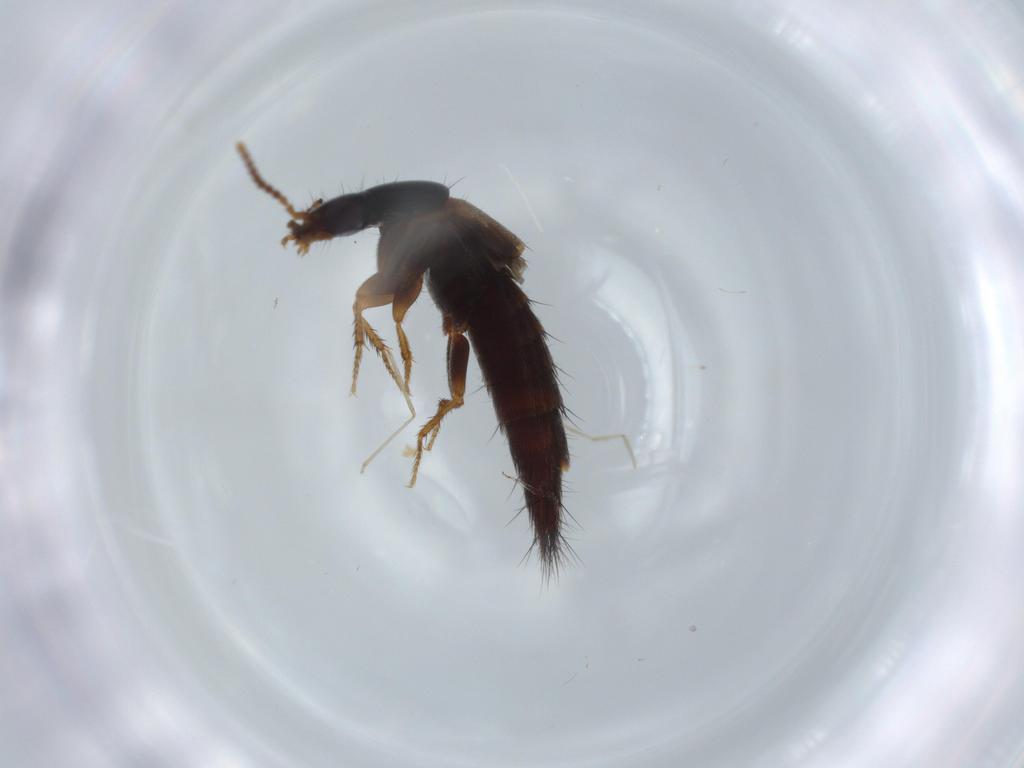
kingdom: Animalia
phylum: Arthropoda
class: Insecta
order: Coleoptera
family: Staphylinidae
